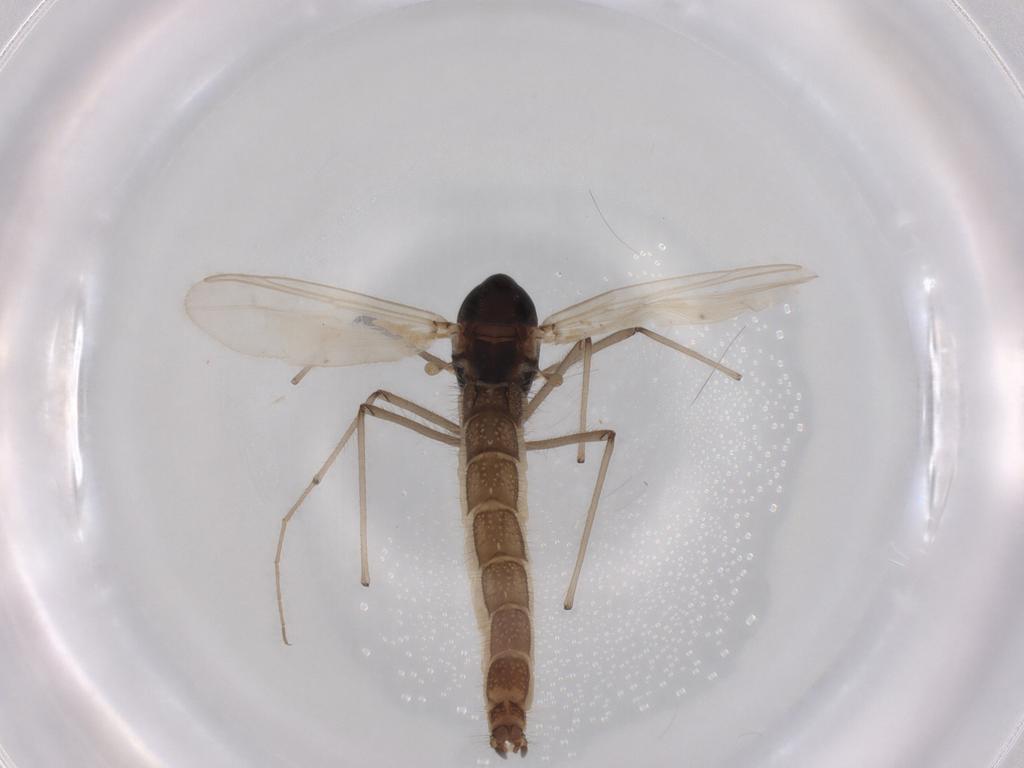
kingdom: Animalia
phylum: Arthropoda
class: Insecta
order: Diptera
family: Chironomidae
